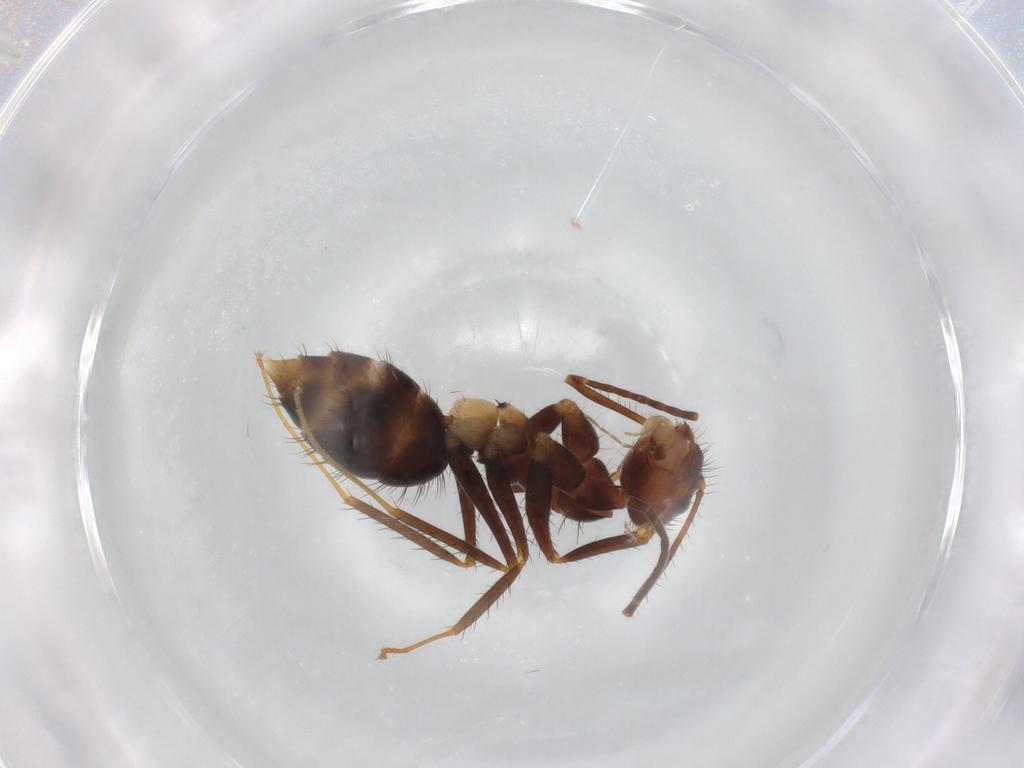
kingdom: Animalia
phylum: Arthropoda
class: Insecta
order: Hymenoptera
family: Formicidae
